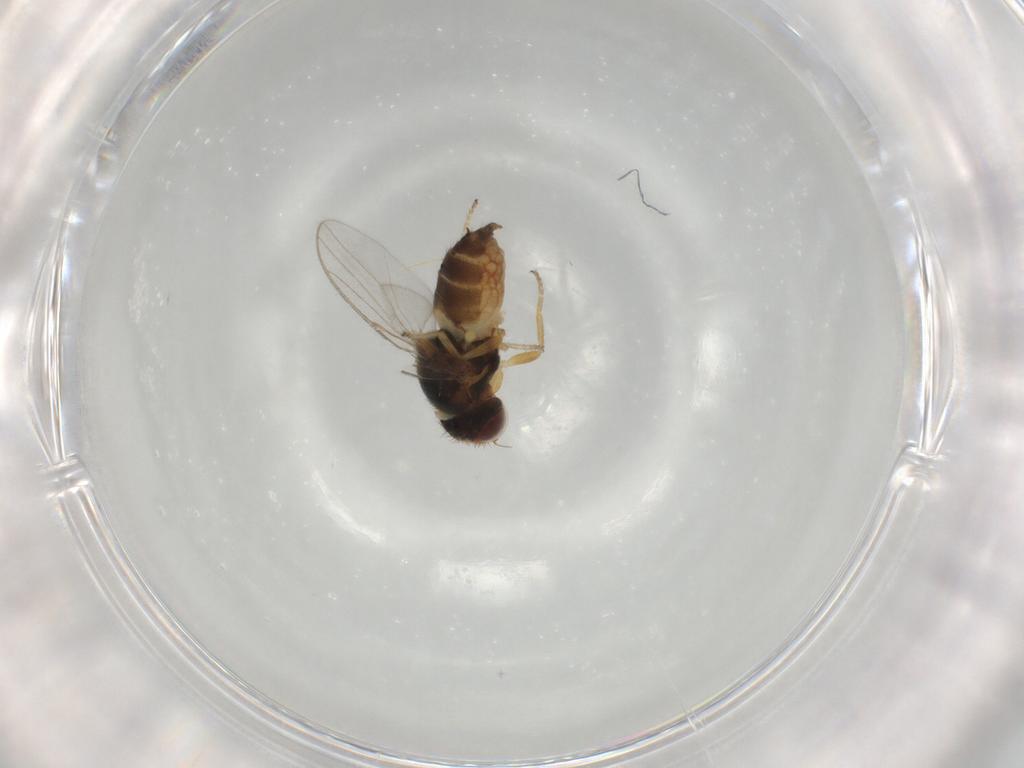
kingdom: Animalia
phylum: Arthropoda
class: Insecta
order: Diptera
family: Chloropidae
